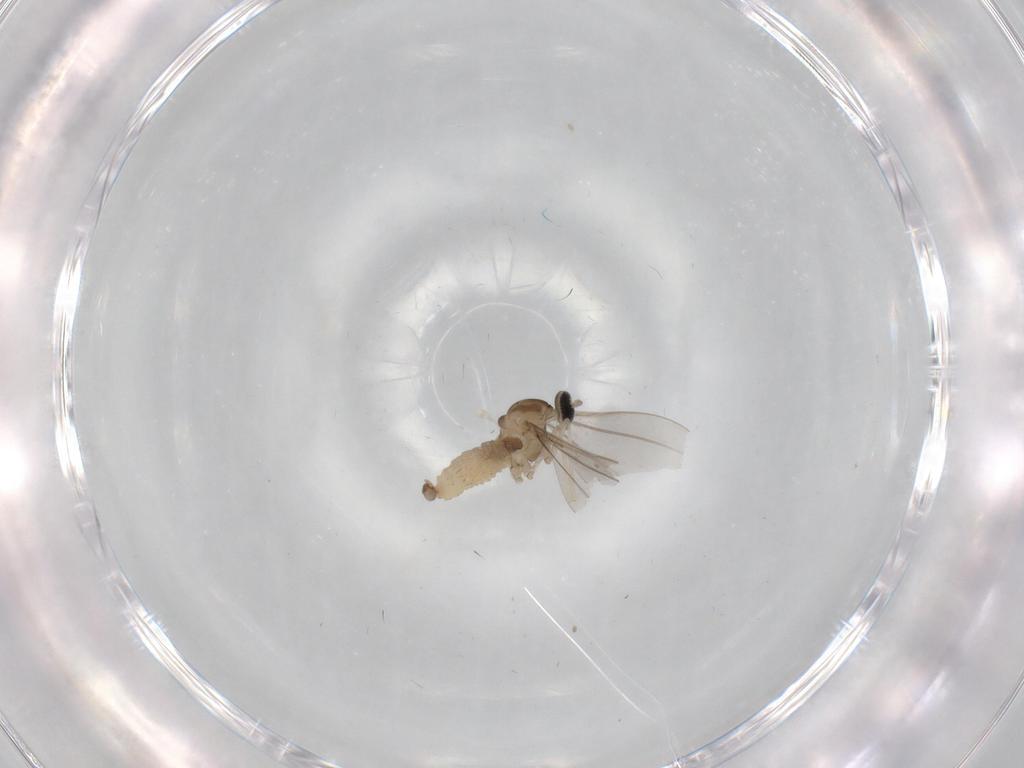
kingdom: Animalia
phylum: Arthropoda
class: Insecta
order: Diptera
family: Cecidomyiidae
